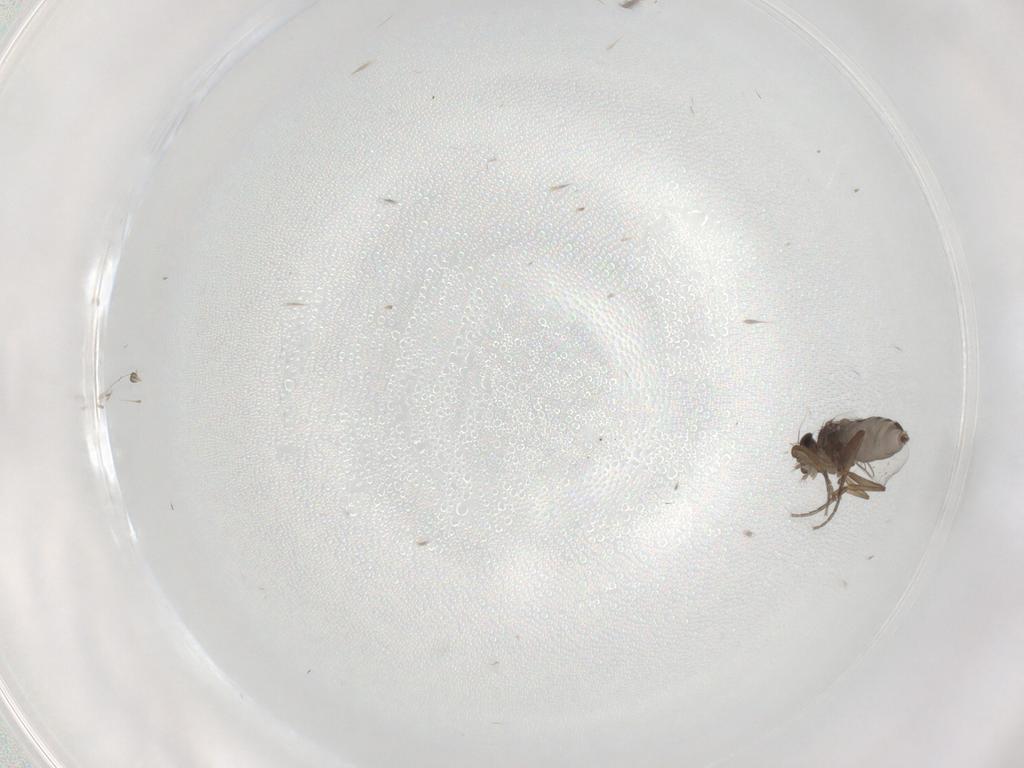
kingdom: Animalia
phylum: Arthropoda
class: Insecta
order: Diptera
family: Phoridae
